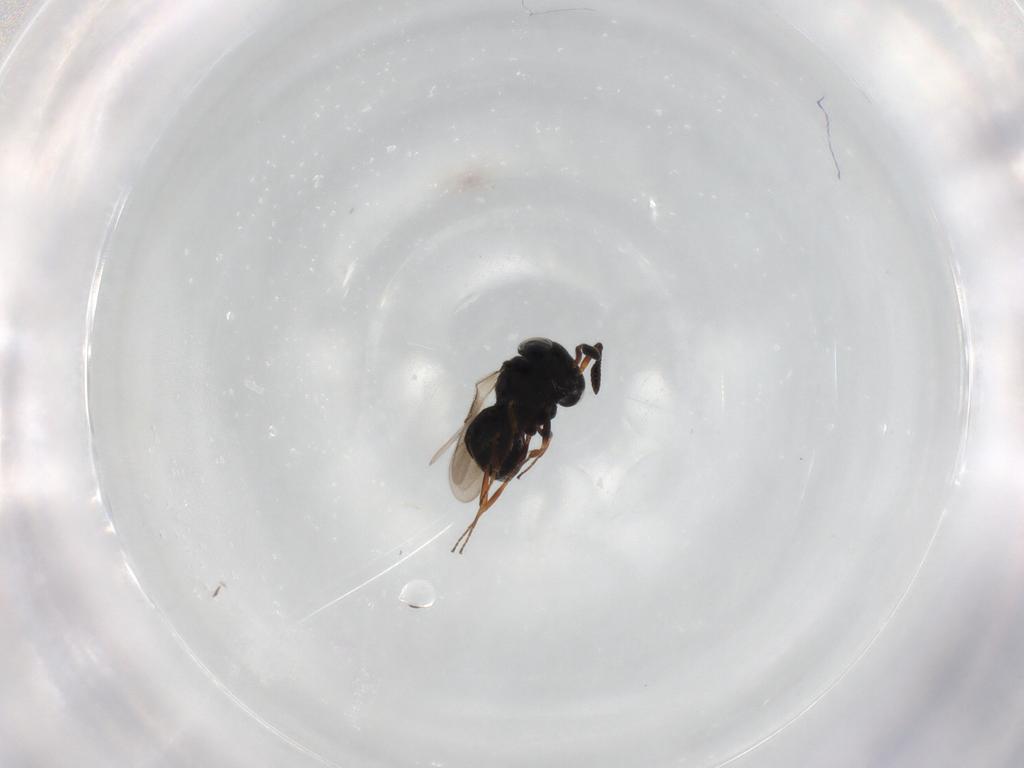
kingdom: Animalia
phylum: Arthropoda
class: Insecta
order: Hymenoptera
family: Scelionidae
